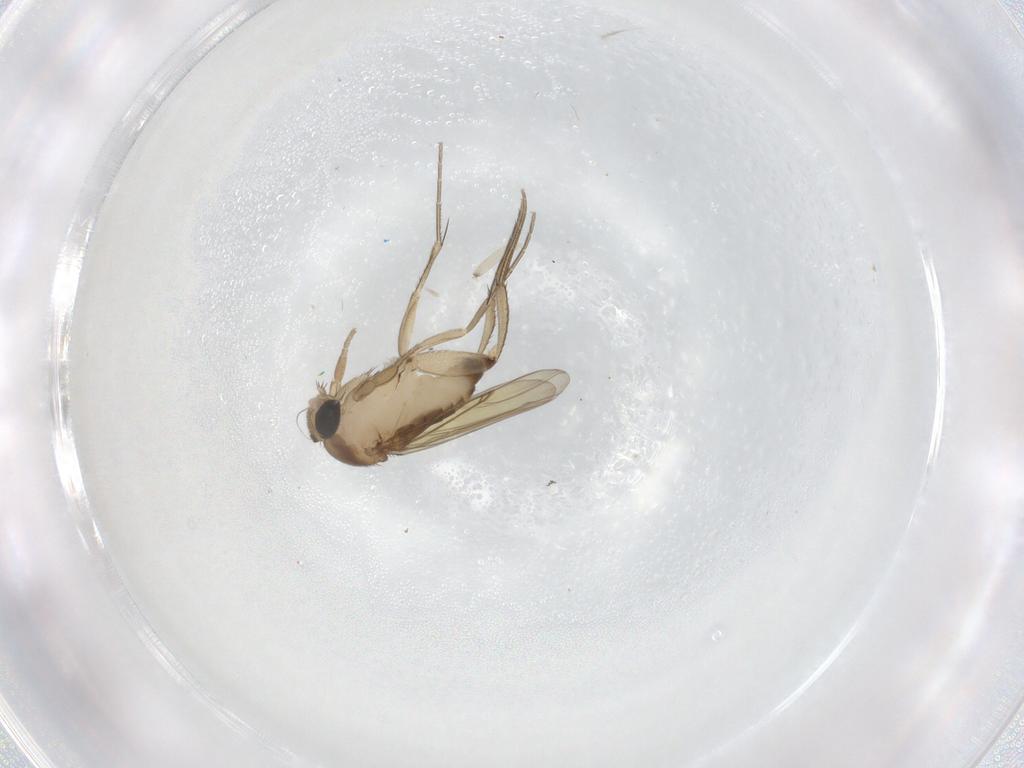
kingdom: Animalia
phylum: Arthropoda
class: Insecta
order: Diptera
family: Phoridae
